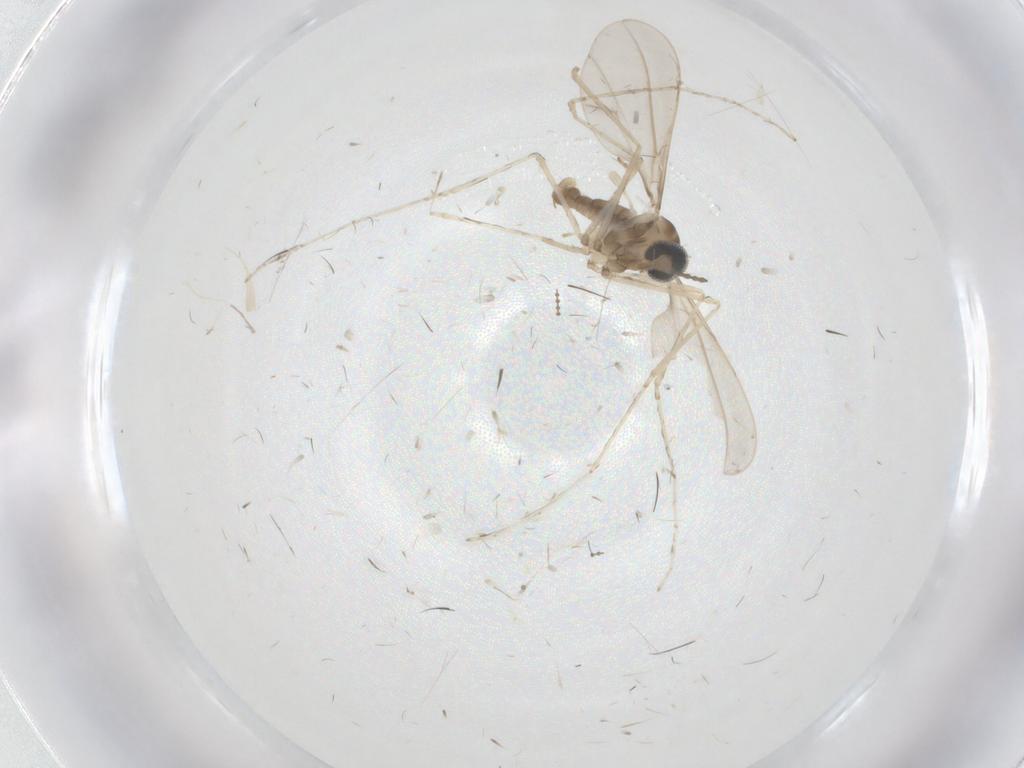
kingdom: Animalia
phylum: Arthropoda
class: Insecta
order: Diptera
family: Cecidomyiidae
